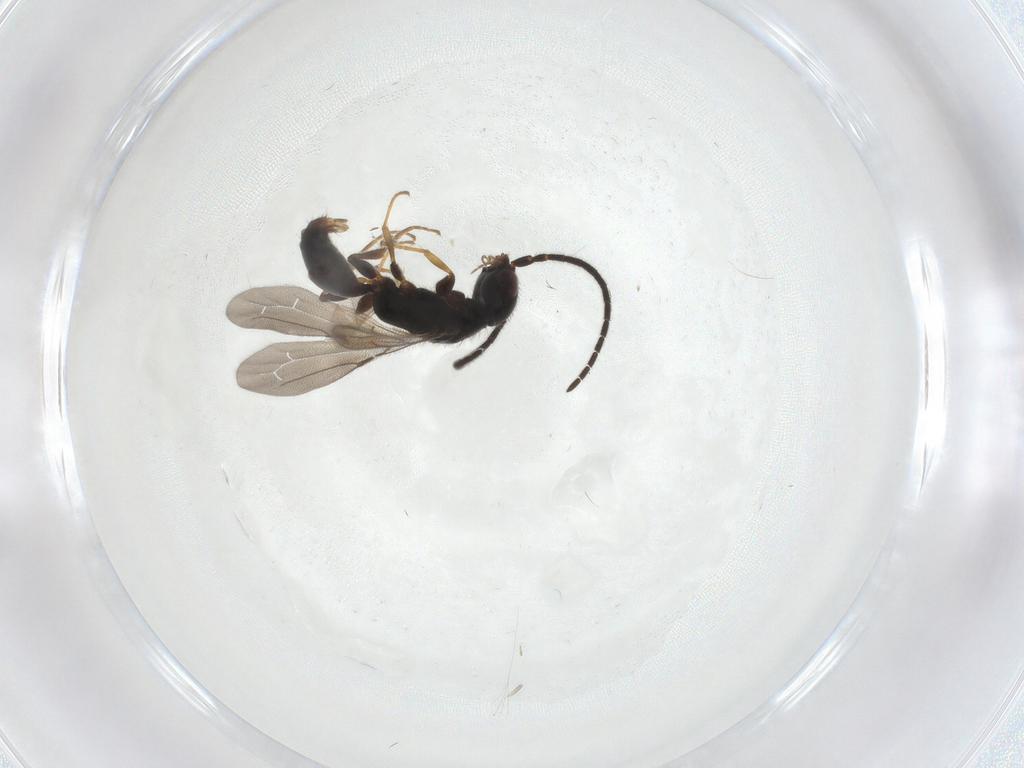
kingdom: Animalia
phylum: Arthropoda
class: Insecta
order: Hymenoptera
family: Bethylidae
